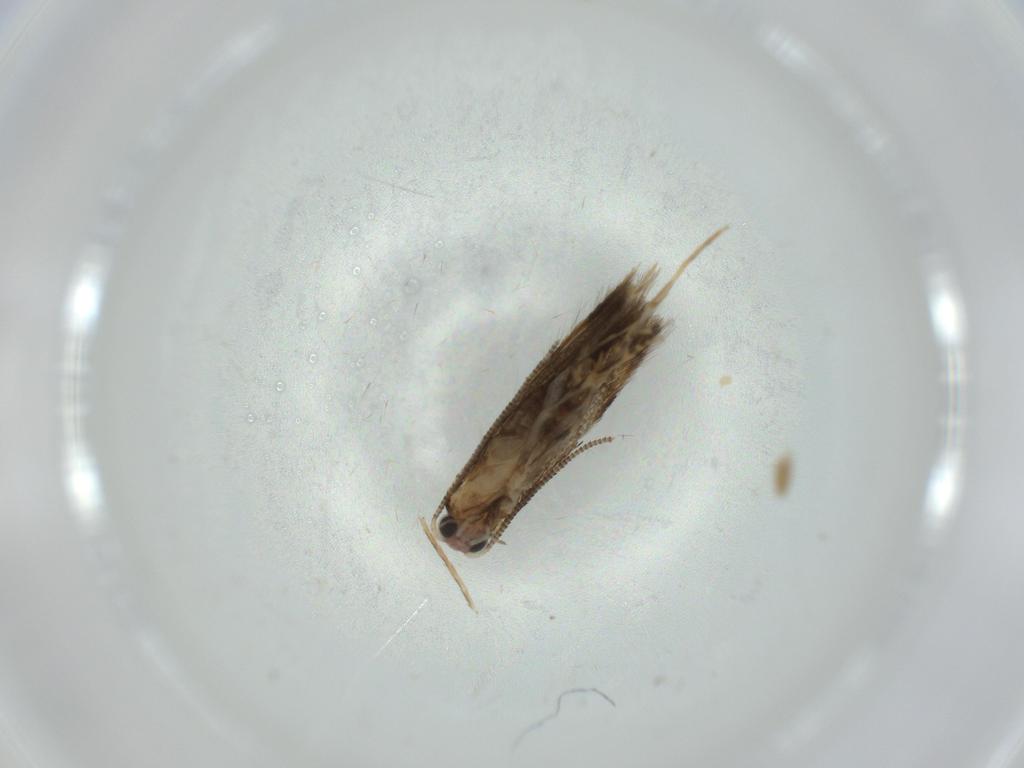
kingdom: Animalia
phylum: Arthropoda
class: Insecta
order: Lepidoptera
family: Tineidae
